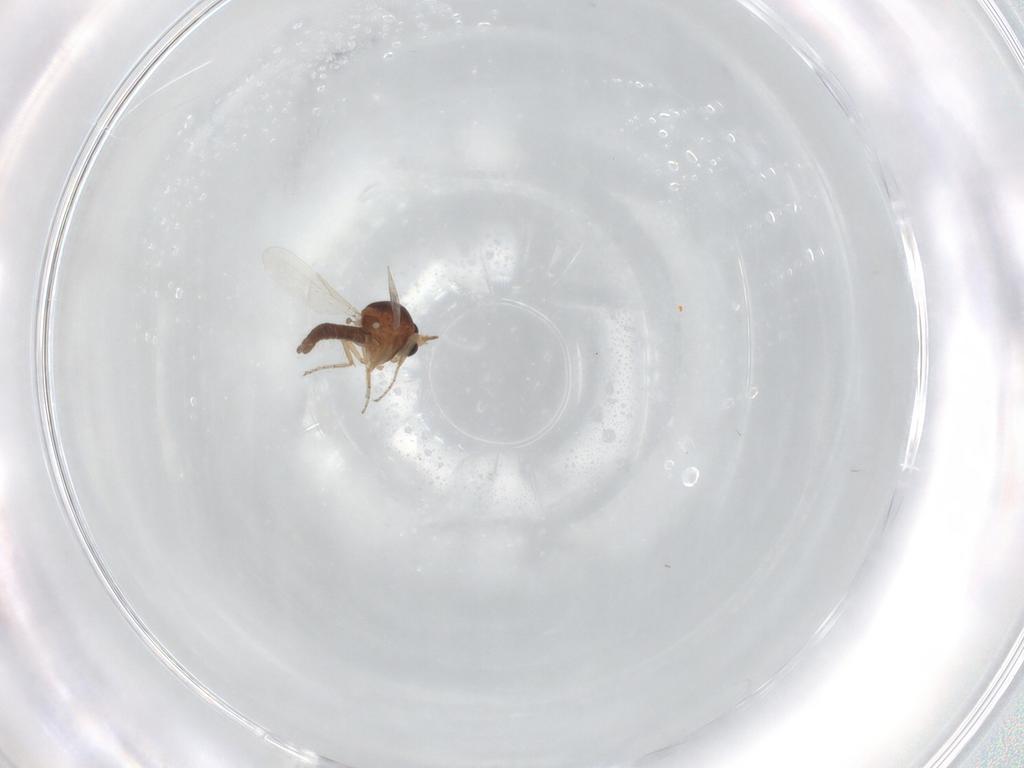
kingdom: Animalia
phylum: Arthropoda
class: Insecta
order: Diptera
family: Ceratopogonidae
